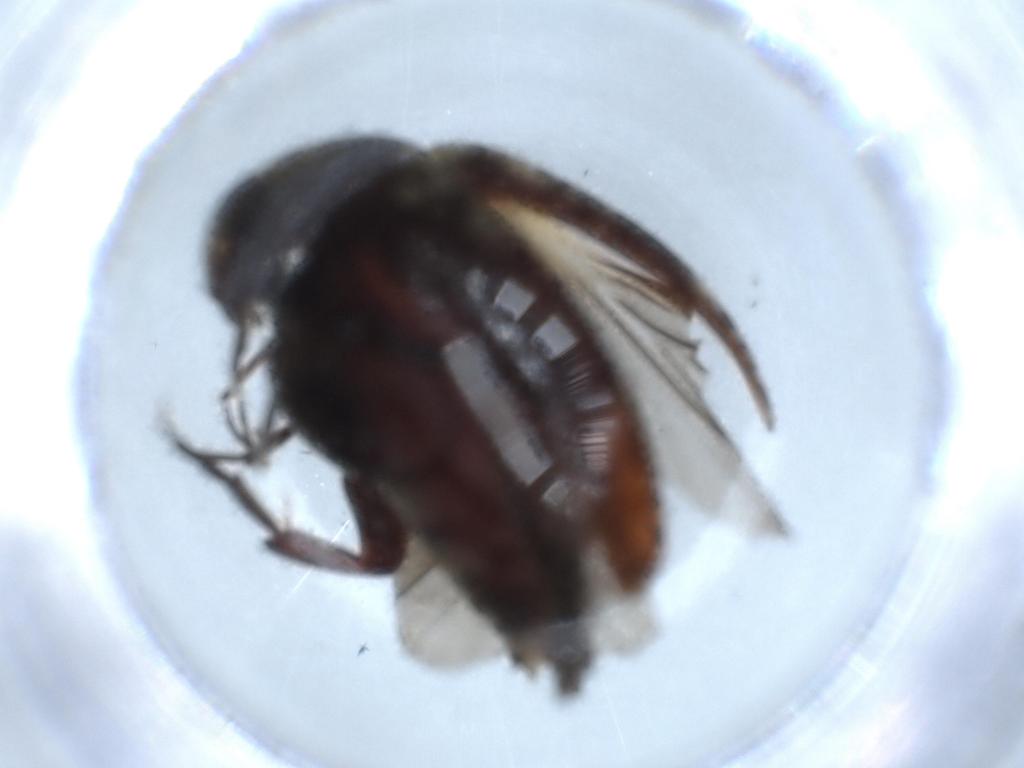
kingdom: Animalia
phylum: Arthropoda
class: Insecta
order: Coleoptera
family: Nitidulidae
